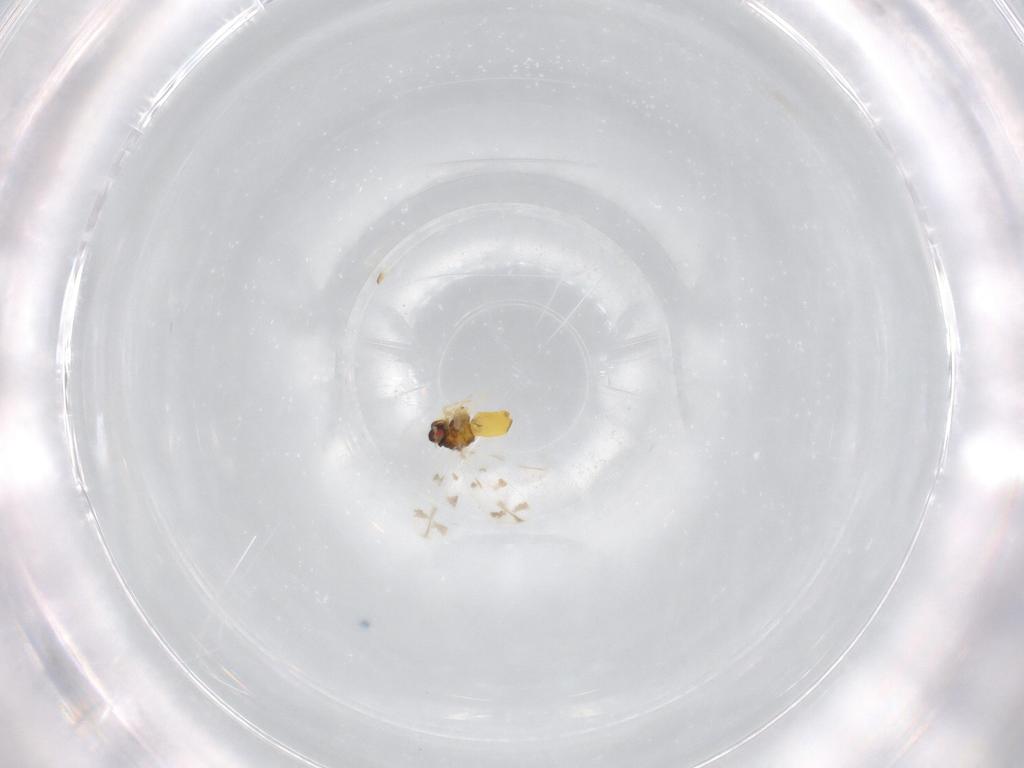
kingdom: Animalia
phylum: Arthropoda
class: Insecta
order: Hemiptera
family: Aleyrodidae
